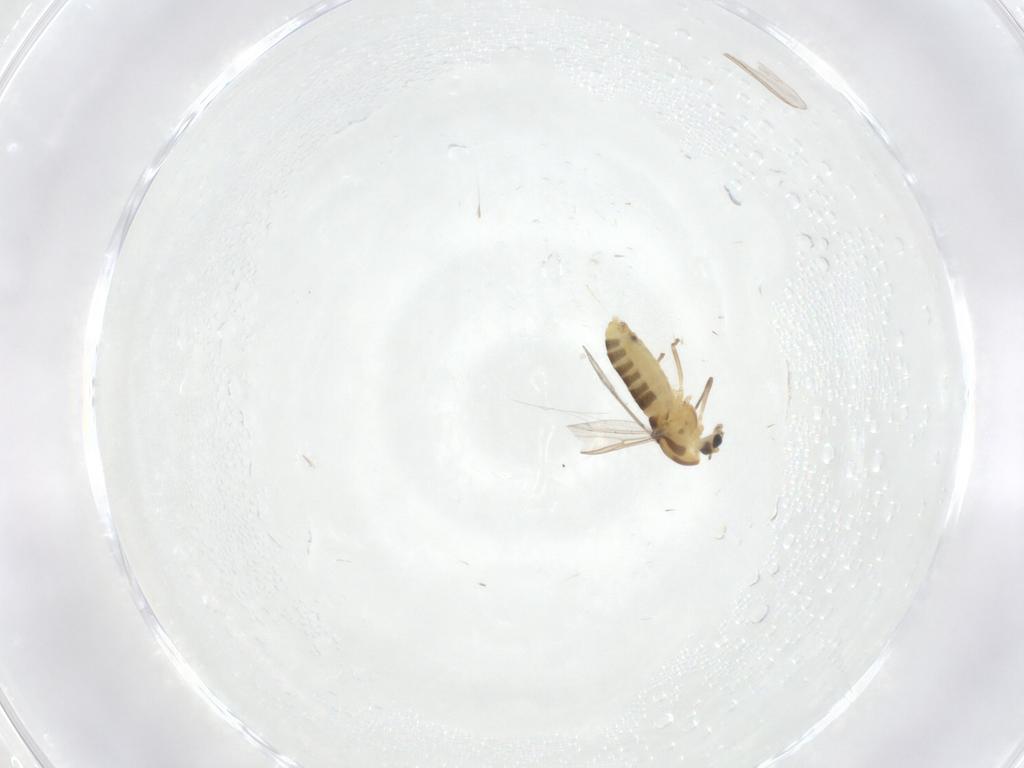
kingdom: Animalia
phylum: Arthropoda
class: Insecta
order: Diptera
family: Chironomidae
